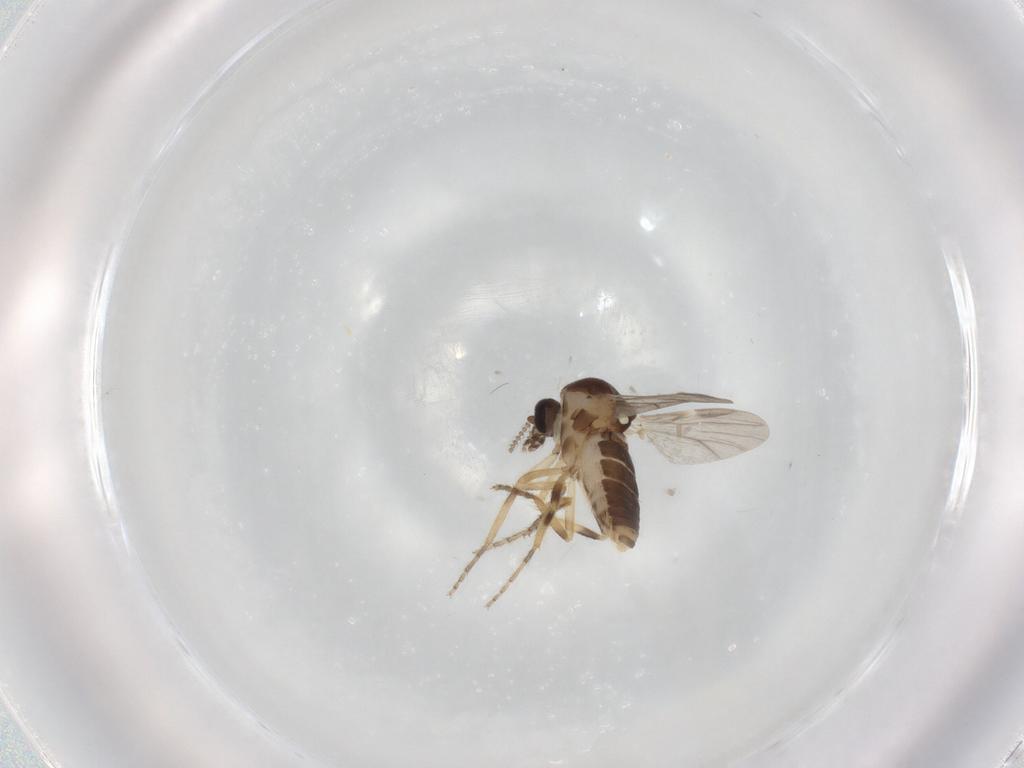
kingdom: Animalia
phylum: Arthropoda
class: Insecta
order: Diptera
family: Ceratopogonidae
